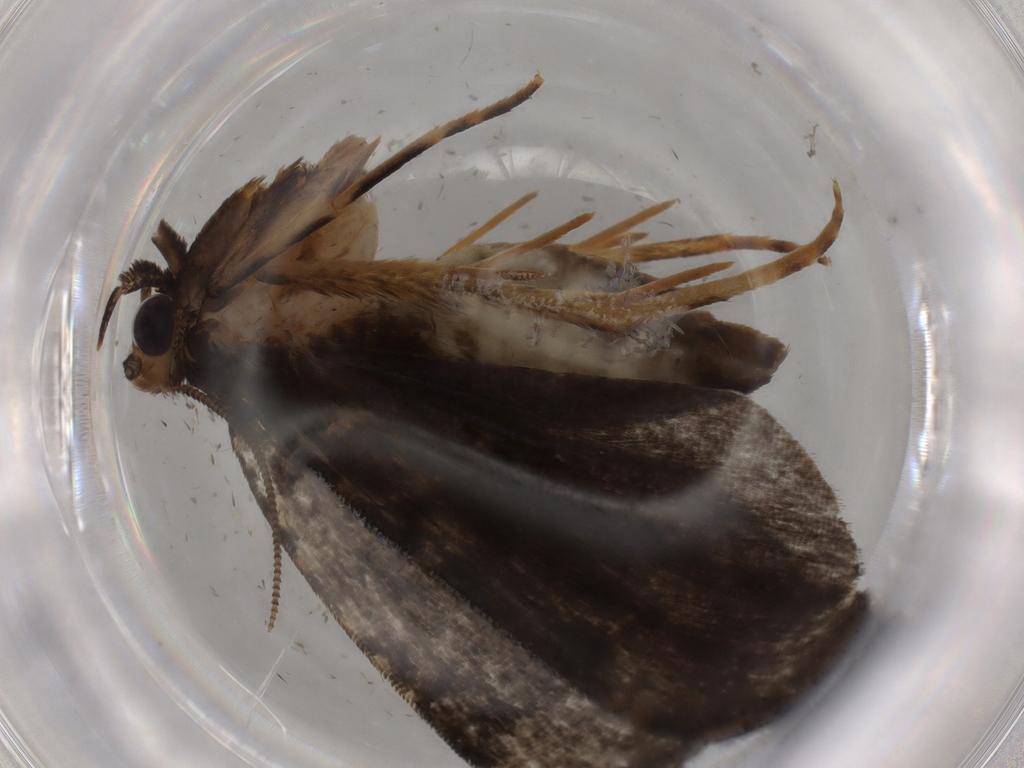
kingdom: Animalia
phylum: Arthropoda
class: Insecta
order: Lepidoptera
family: Tineidae
